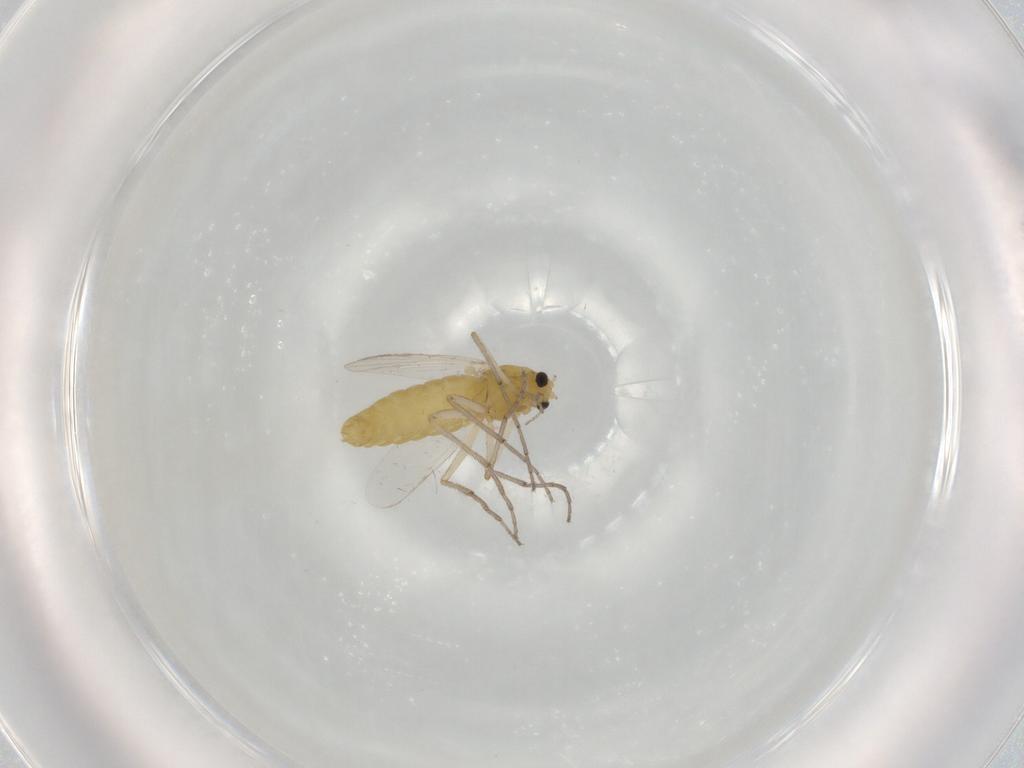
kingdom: Animalia
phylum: Arthropoda
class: Insecta
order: Diptera
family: Chironomidae
